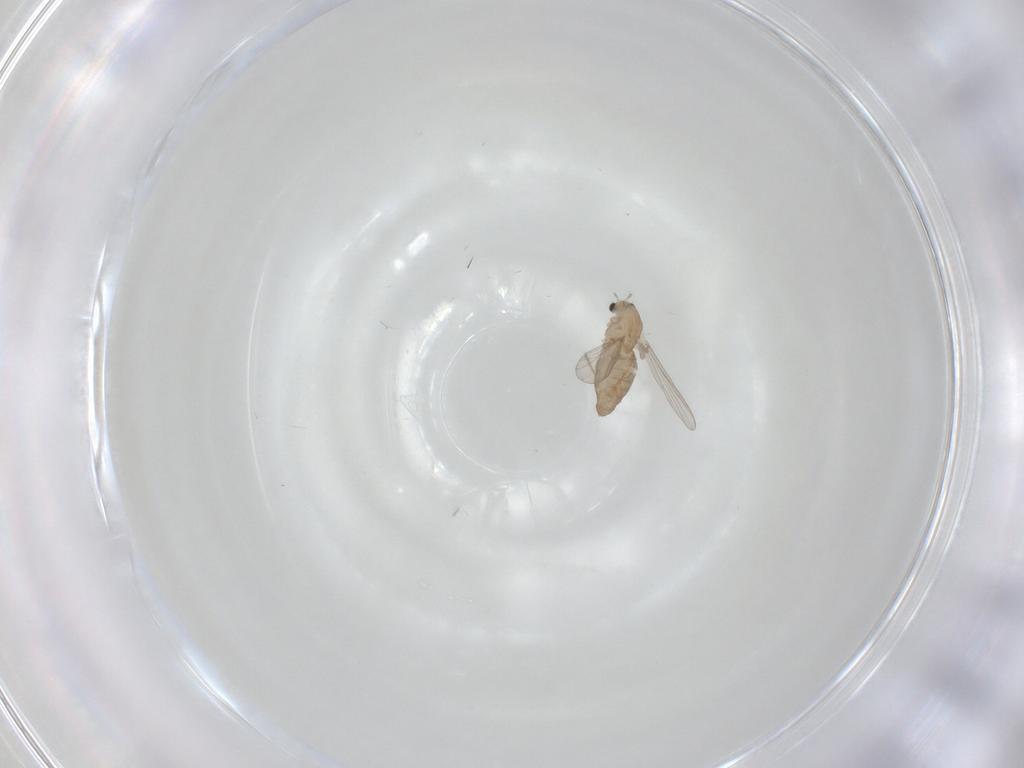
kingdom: Animalia
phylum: Arthropoda
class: Insecta
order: Diptera
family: Chironomidae
